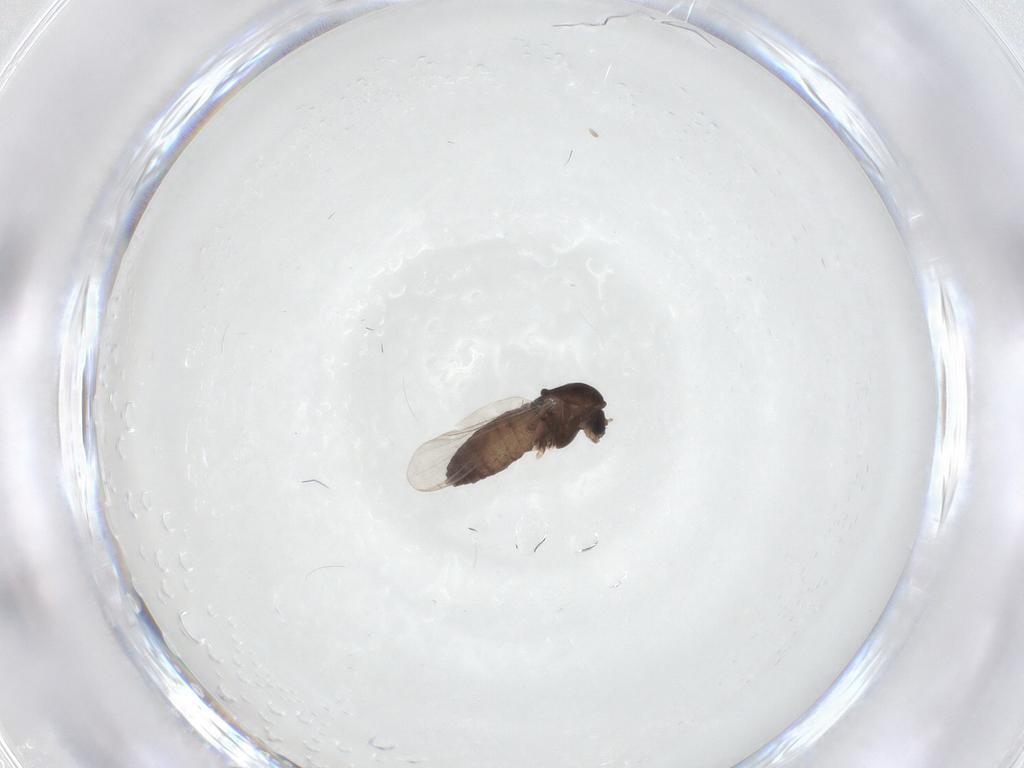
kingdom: Animalia
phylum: Arthropoda
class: Insecta
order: Diptera
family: Chironomidae
